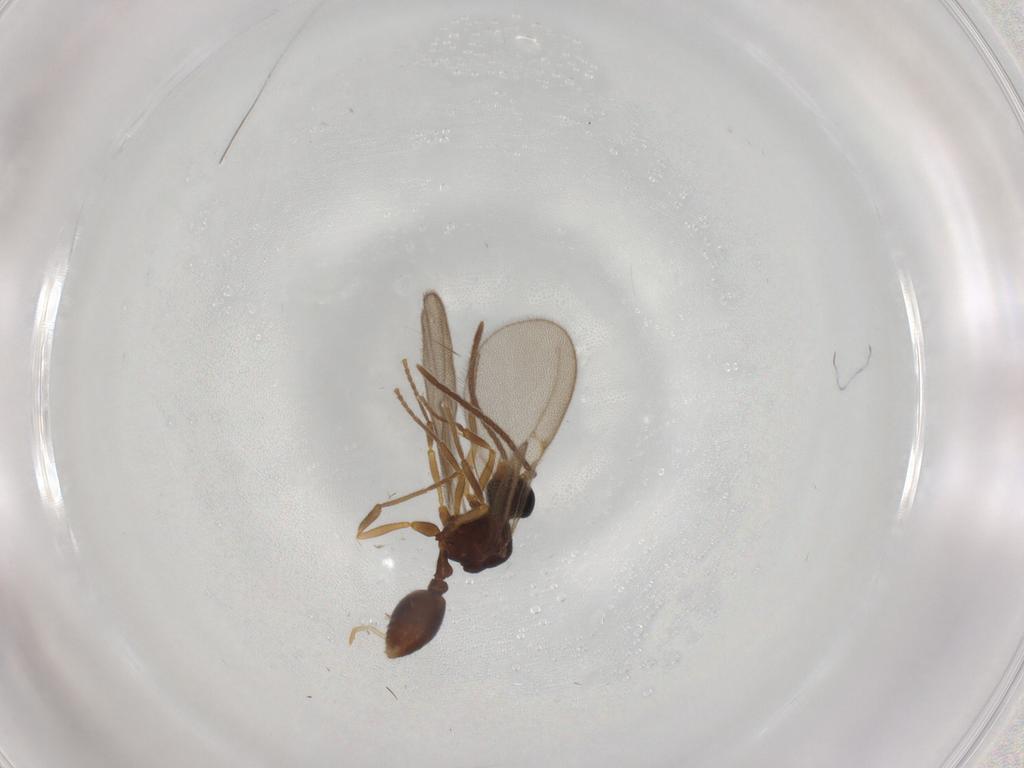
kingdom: Animalia
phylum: Arthropoda
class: Insecta
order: Hymenoptera
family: Formicidae
